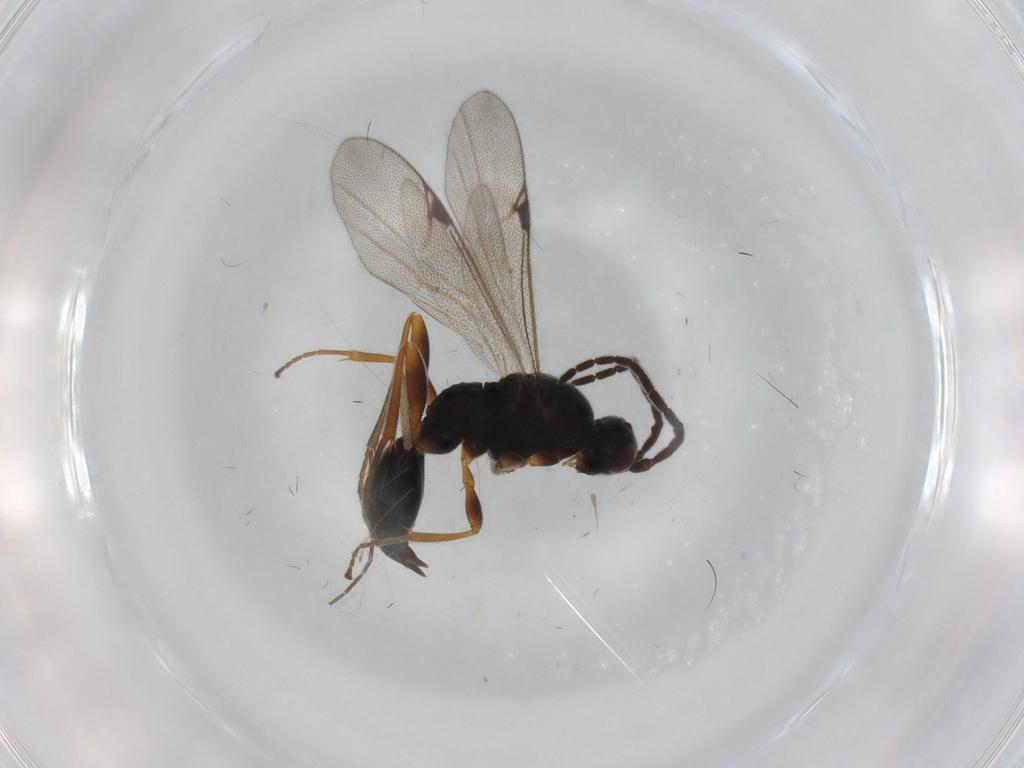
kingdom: Animalia
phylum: Arthropoda
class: Insecta
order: Diptera
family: Mythicomyiidae
